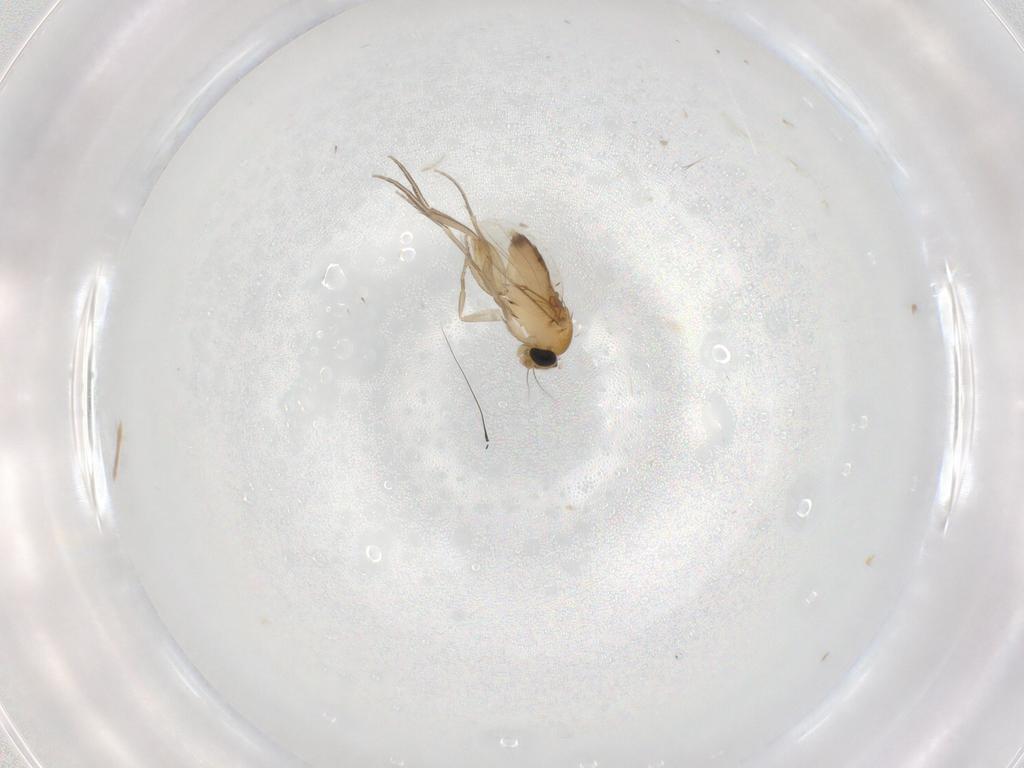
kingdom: Animalia
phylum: Arthropoda
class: Insecta
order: Diptera
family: Phoridae
